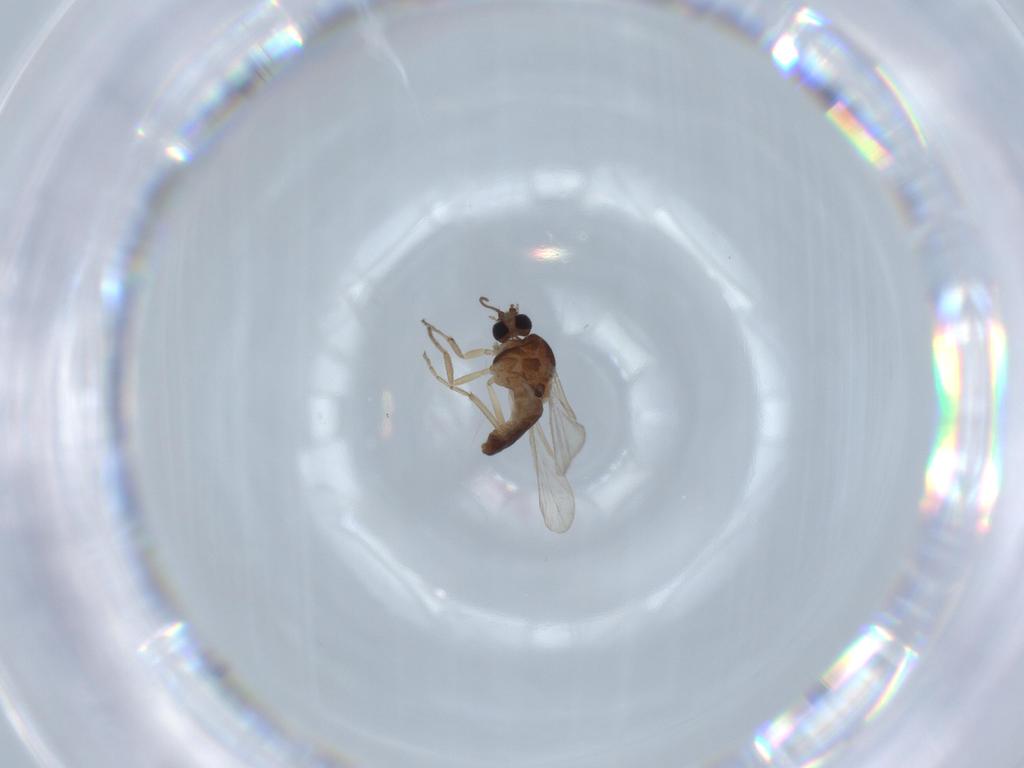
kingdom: Animalia
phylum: Arthropoda
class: Insecta
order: Diptera
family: Ceratopogonidae
